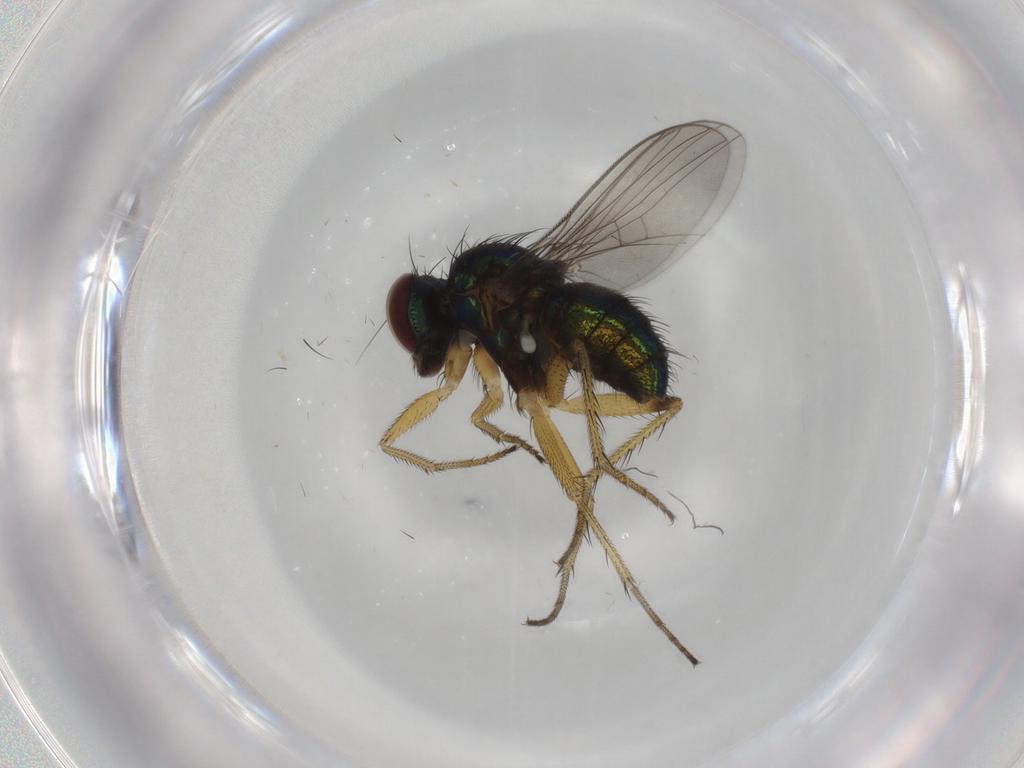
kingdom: Animalia
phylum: Arthropoda
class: Insecta
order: Diptera
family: Dolichopodidae
